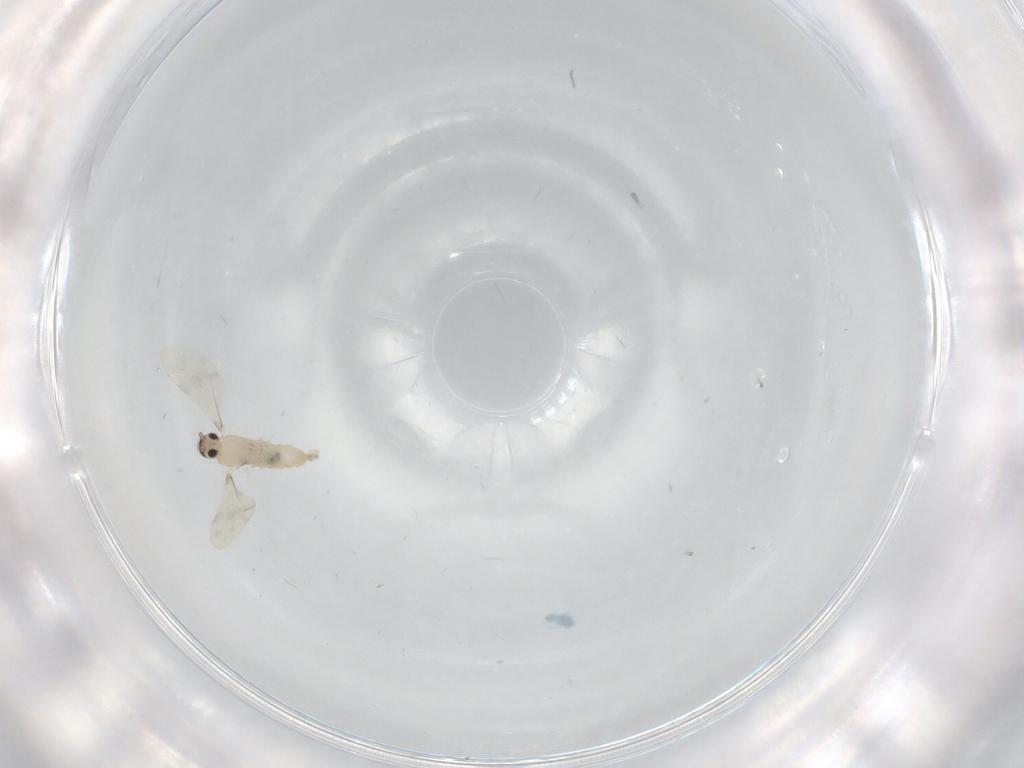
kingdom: Animalia
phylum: Arthropoda
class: Insecta
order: Diptera
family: Cecidomyiidae
